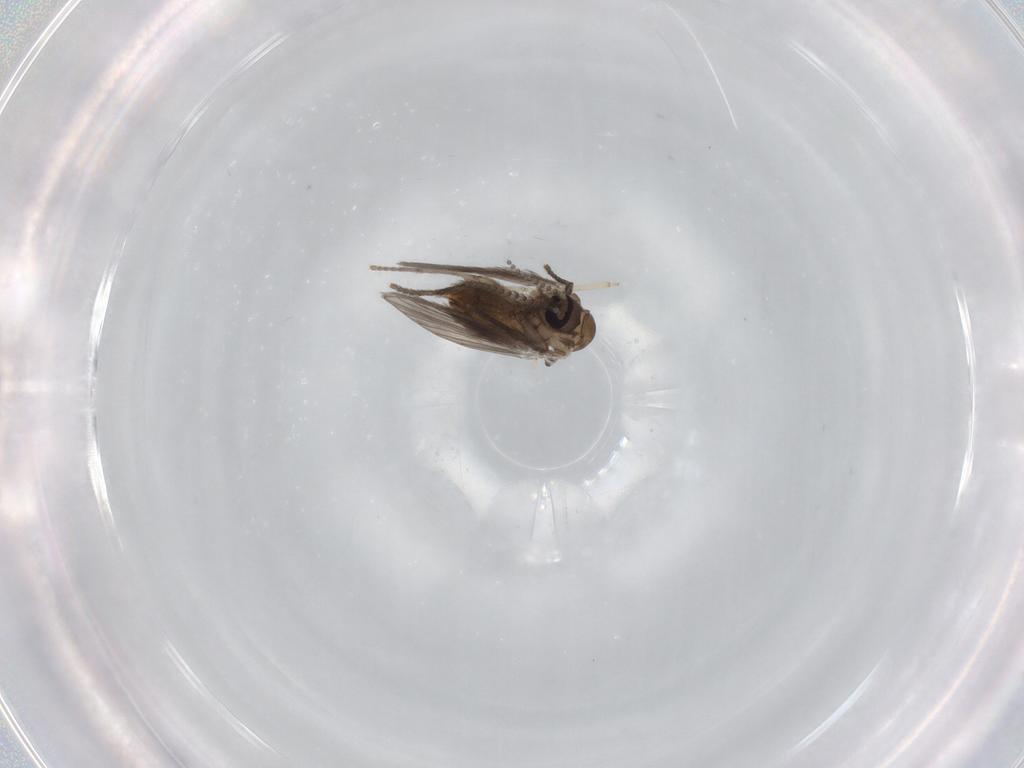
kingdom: Animalia
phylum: Arthropoda
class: Insecta
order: Diptera
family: Cecidomyiidae
